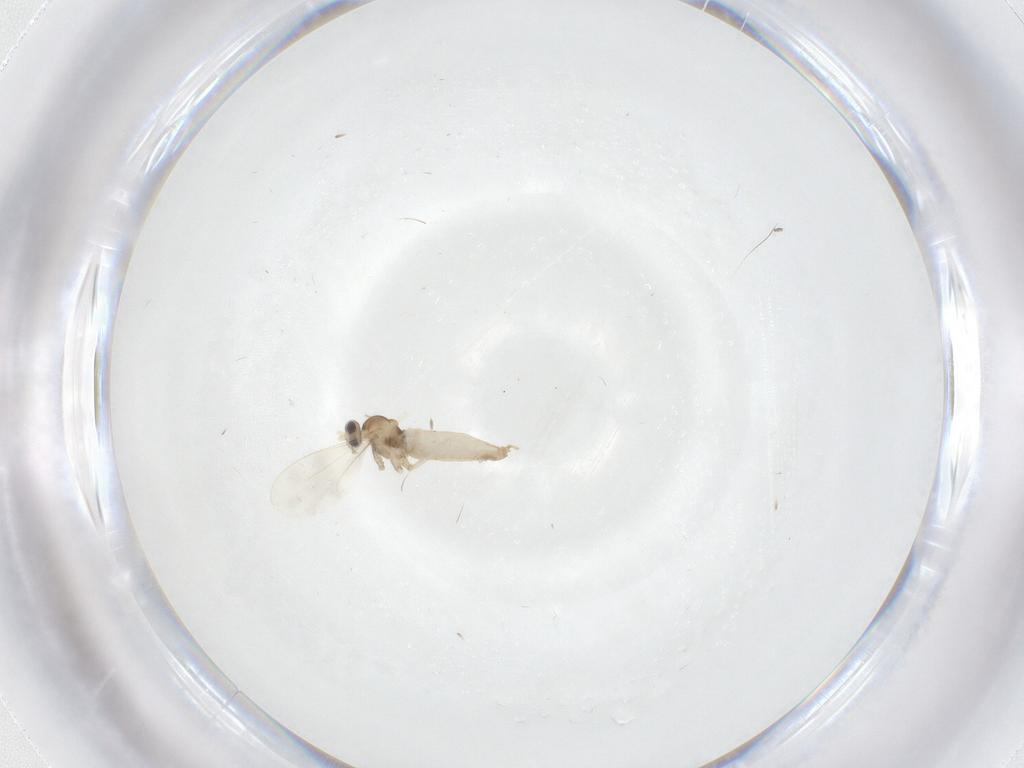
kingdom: Animalia
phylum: Arthropoda
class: Insecta
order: Diptera
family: Cecidomyiidae
